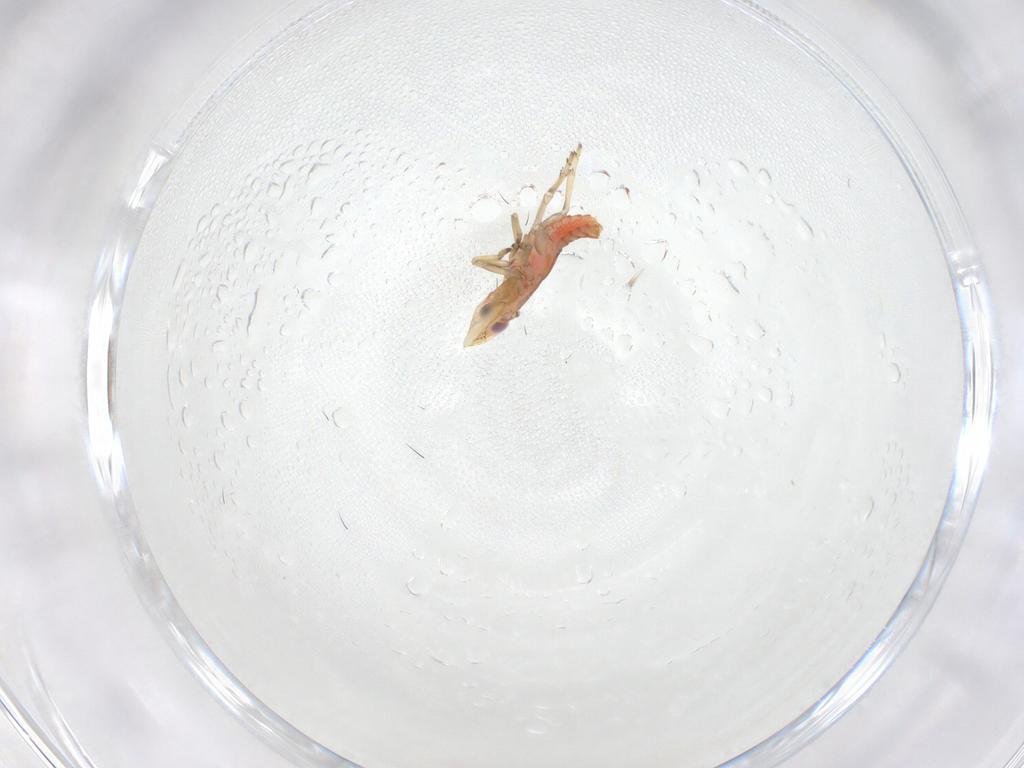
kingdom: Animalia
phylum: Arthropoda
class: Insecta
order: Hemiptera
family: Eurybrachidae
